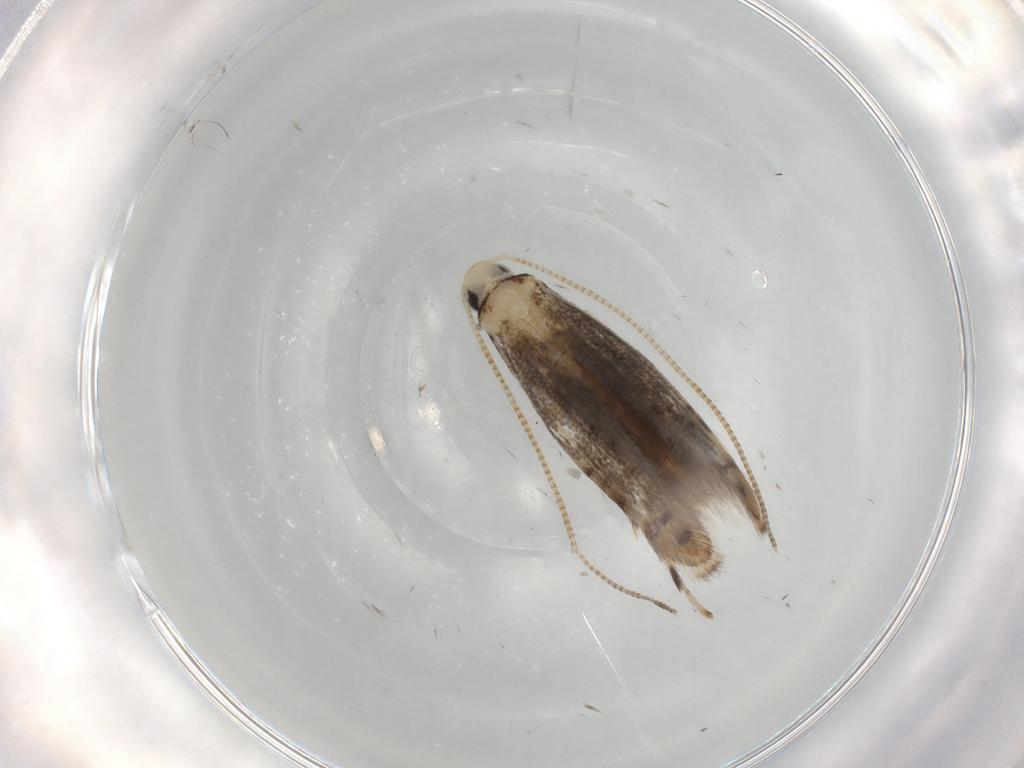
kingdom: Animalia
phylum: Arthropoda
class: Insecta
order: Lepidoptera
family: Gracillariidae
